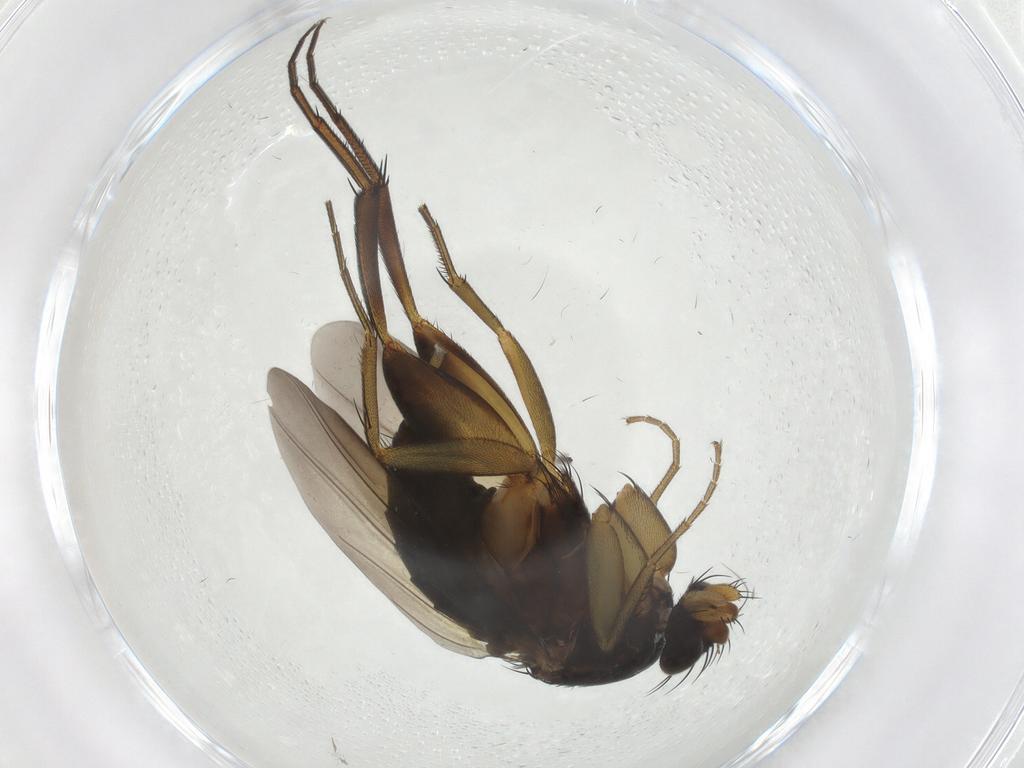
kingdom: Animalia
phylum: Arthropoda
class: Insecta
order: Diptera
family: Phoridae
